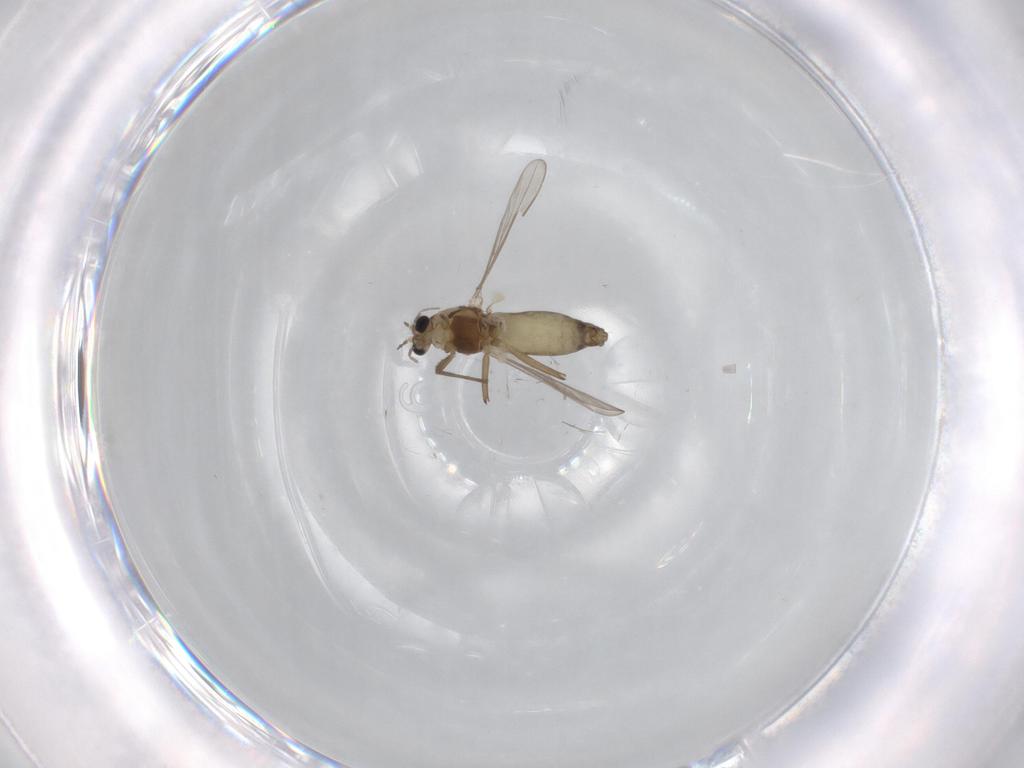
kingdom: Animalia
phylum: Arthropoda
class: Insecta
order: Diptera
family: Chironomidae
